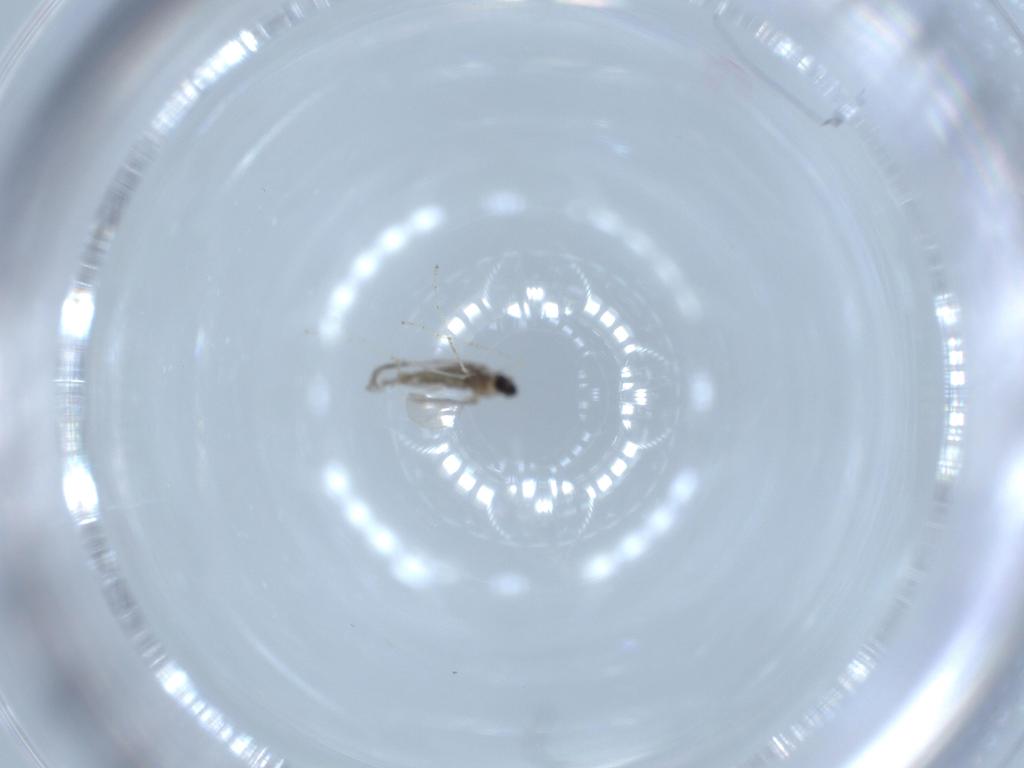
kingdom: Animalia
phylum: Arthropoda
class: Insecta
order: Diptera
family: Cecidomyiidae
